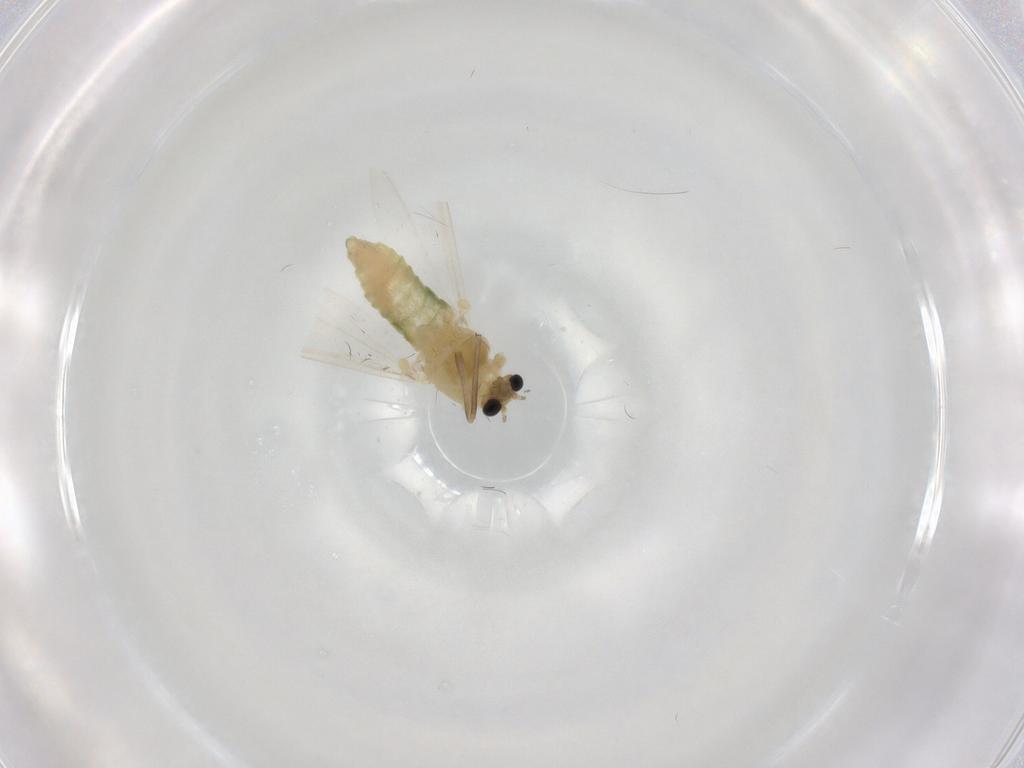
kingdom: Animalia
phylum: Arthropoda
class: Insecta
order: Diptera
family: Chironomidae
